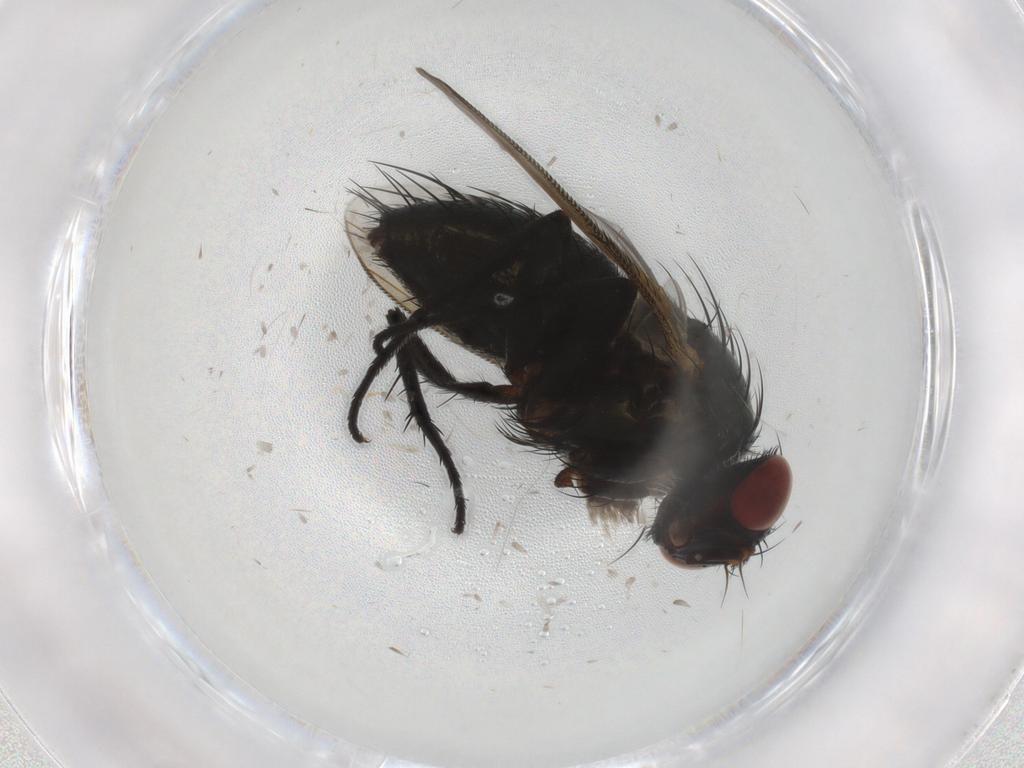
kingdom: Animalia
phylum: Arthropoda
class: Insecta
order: Diptera
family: Tachinidae
